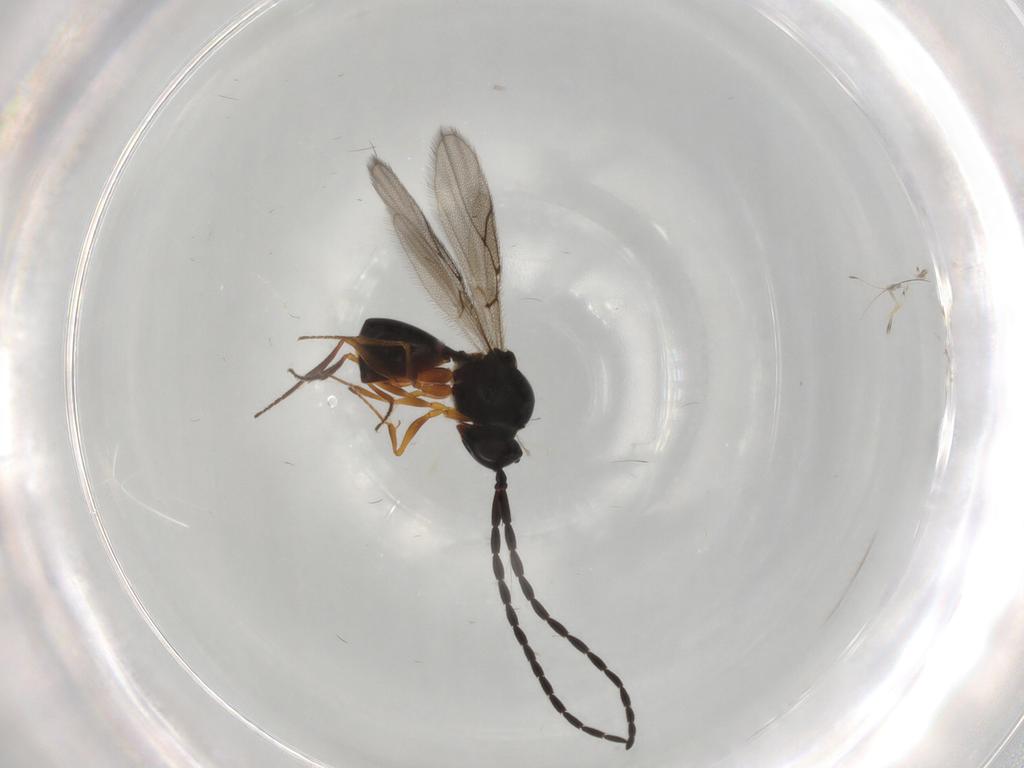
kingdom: Animalia
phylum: Arthropoda
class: Insecta
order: Hymenoptera
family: Figitidae
